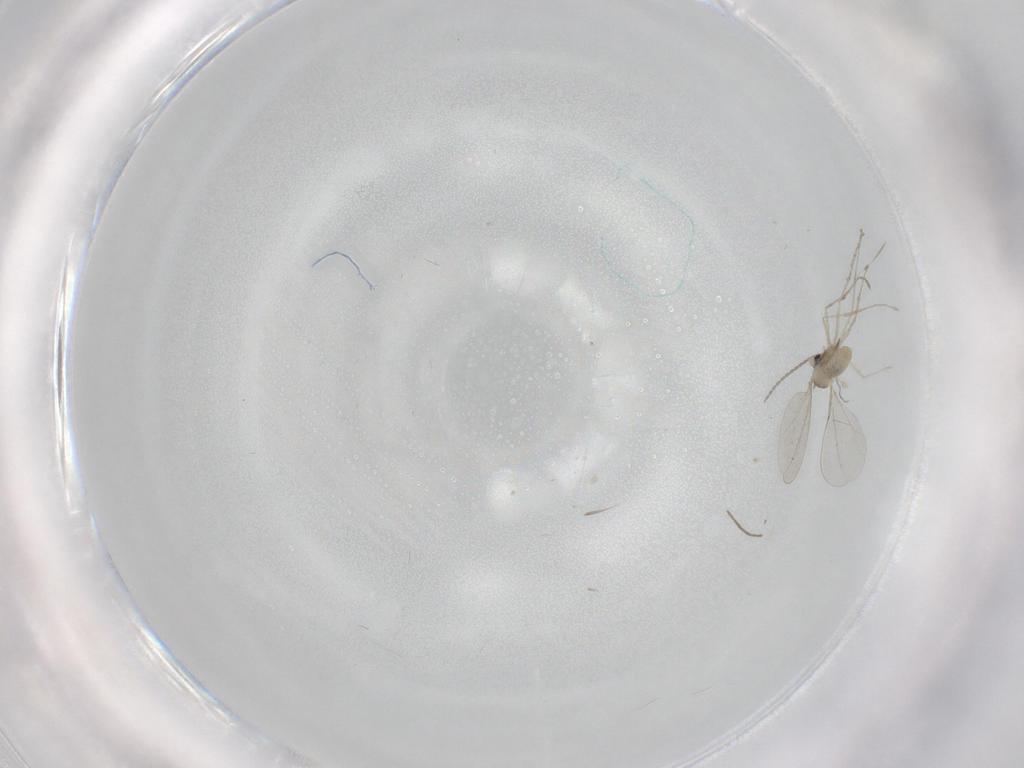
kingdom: Animalia
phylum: Arthropoda
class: Insecta
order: Diptera
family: Cecidomyiidae
